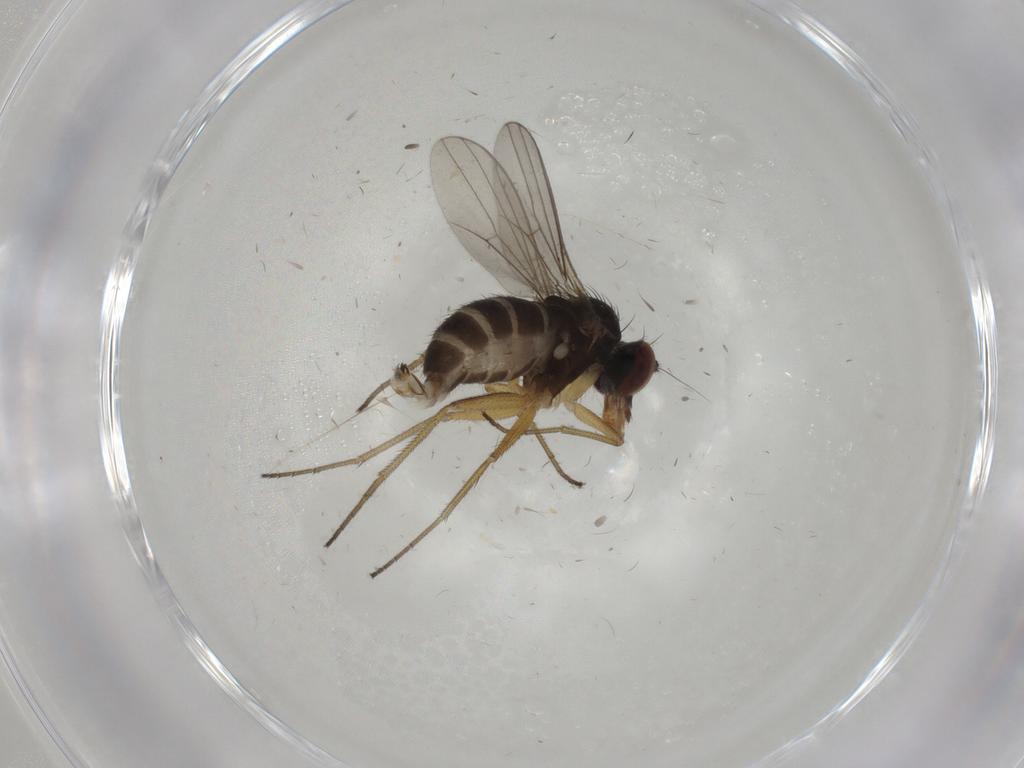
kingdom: Animalia
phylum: Arthropoda
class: Insecta
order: Diptera
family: Dolichopodidae
